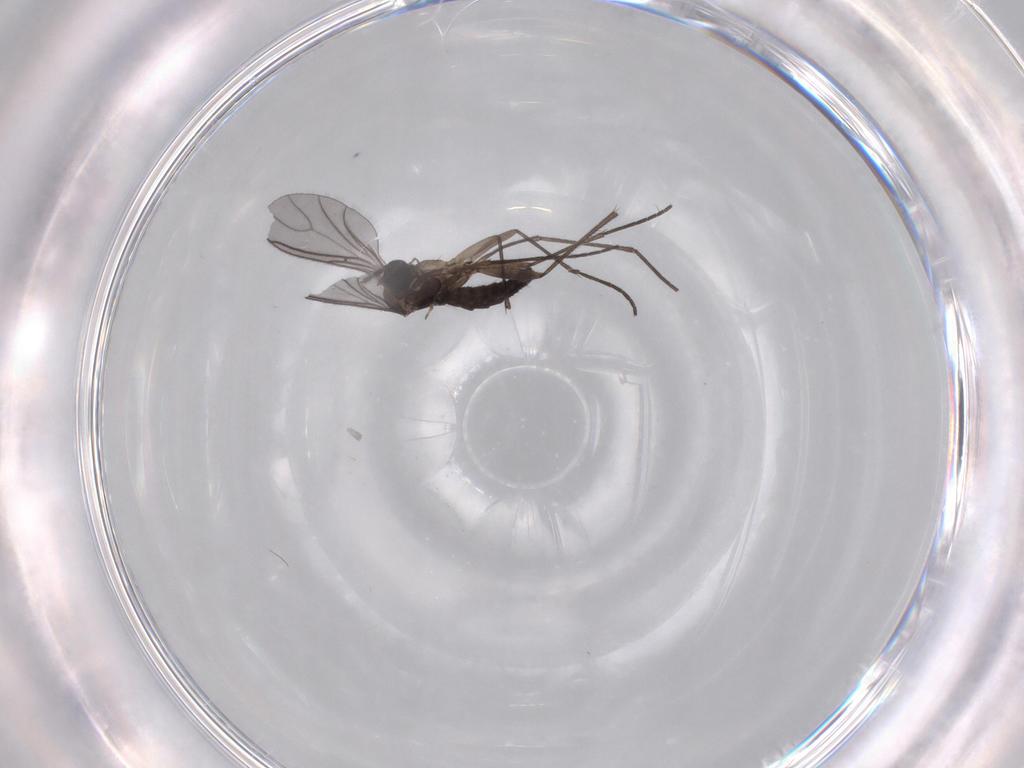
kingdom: Animalia
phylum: Arthropoda
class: Insecta
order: Diptera
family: Sciaridae
